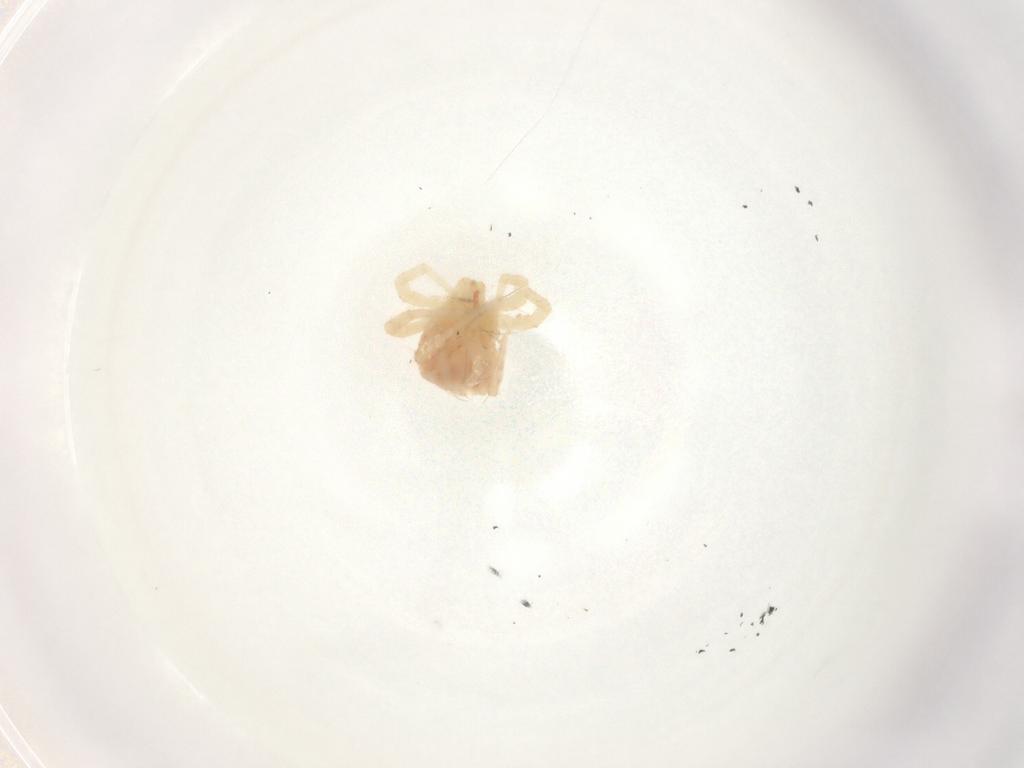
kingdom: Animalia
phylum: Arthropoda
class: Arachnida
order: Trombidiformes
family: Anystidae
